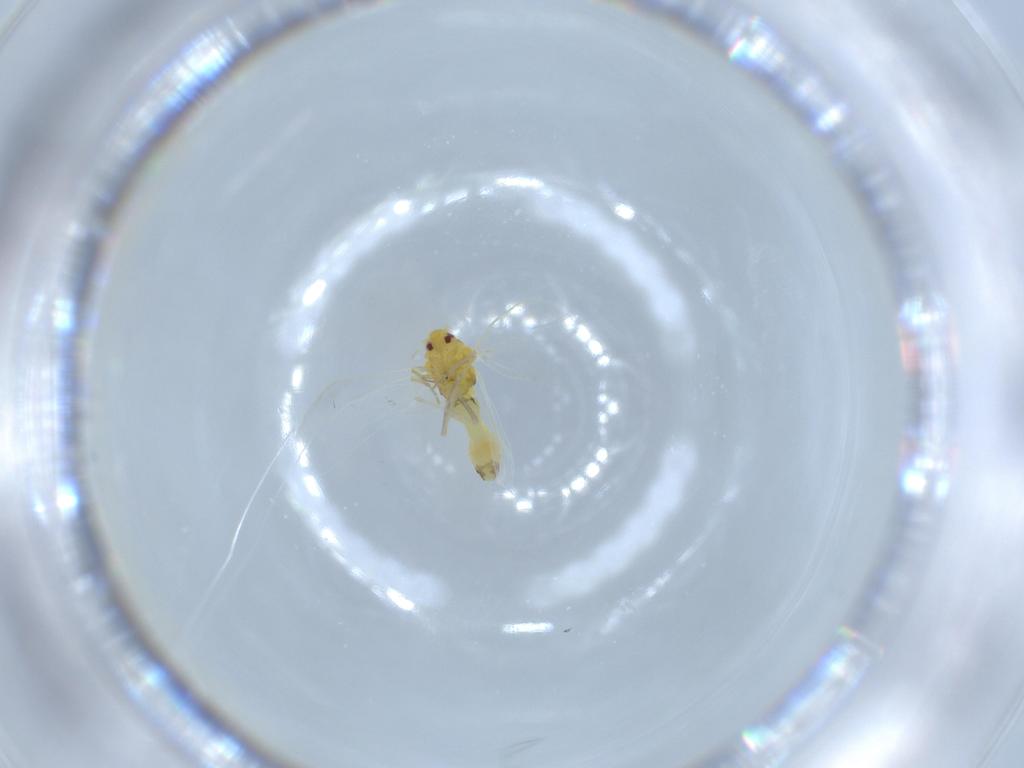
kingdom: Animalia
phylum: Arthropoda
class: Insecta
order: Hemiptera
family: Aleyrodidae
